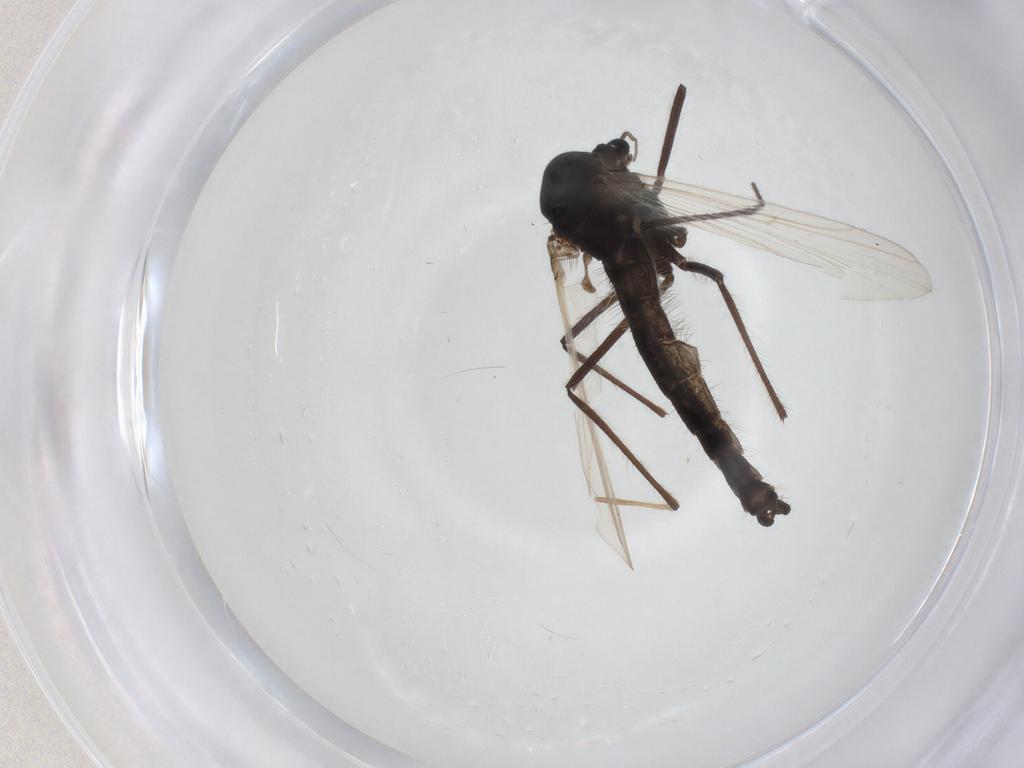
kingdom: Animalia
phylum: Arthropoda
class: Insecta
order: Diptera
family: Chironomidae
